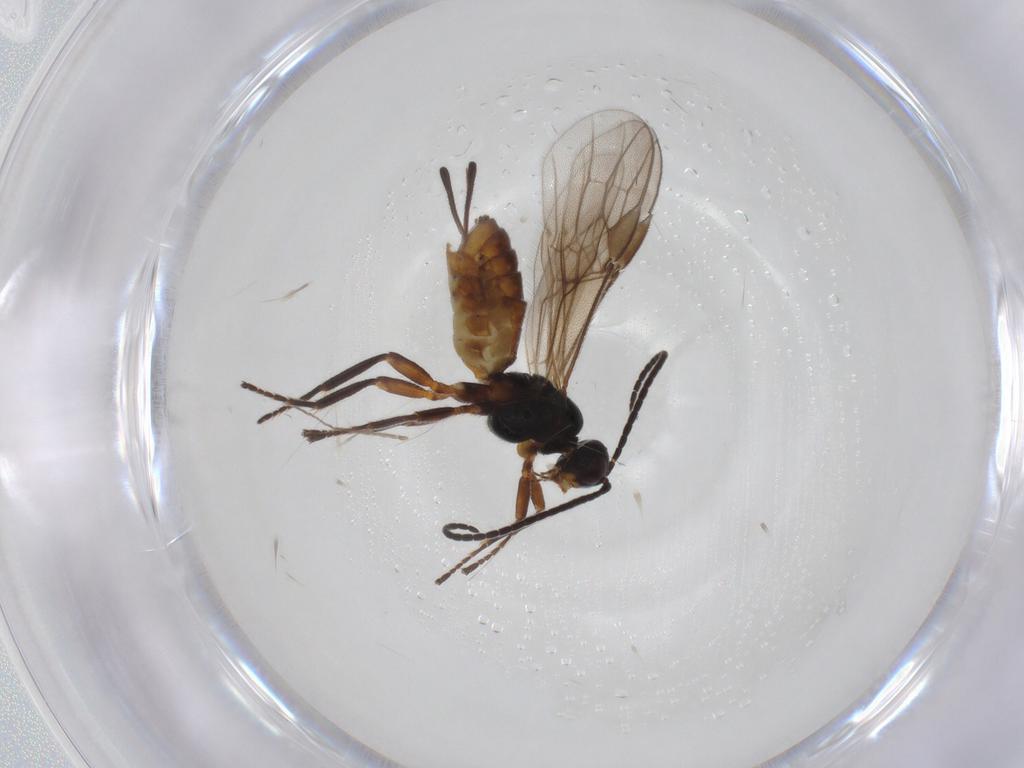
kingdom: Animalia
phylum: Arthropoda
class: Insecta
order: Hymenoptera
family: Braconidae
